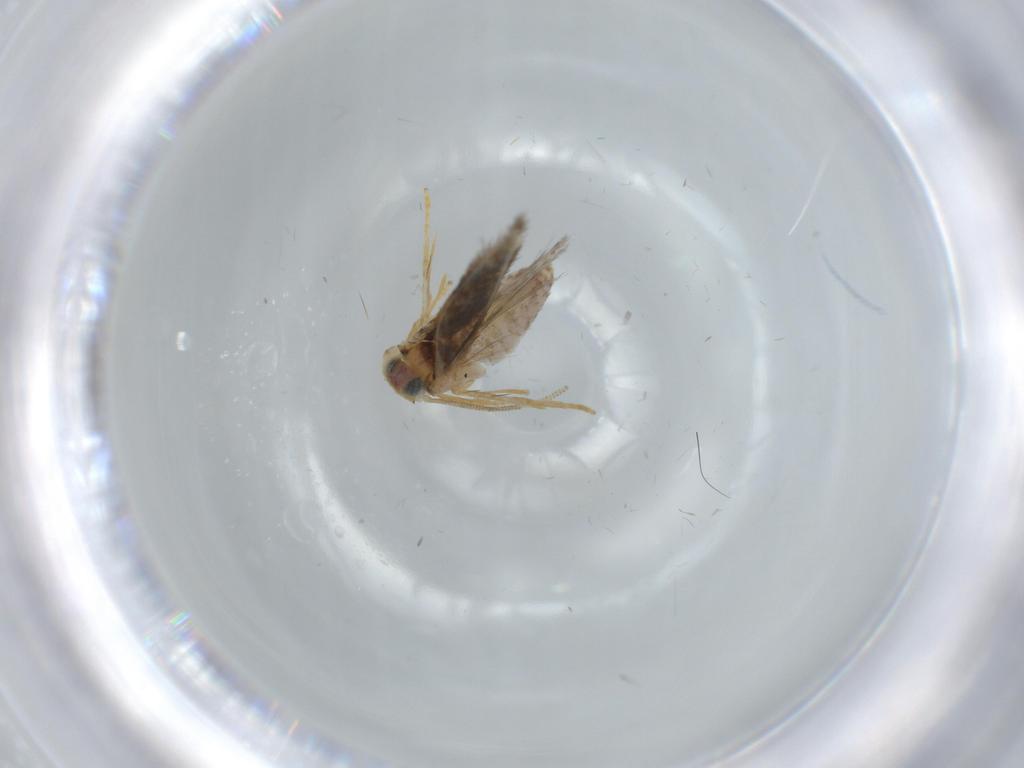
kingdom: Animalia
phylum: Arthropoda
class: Insecta
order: Lepidoptera
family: Nepticulidae
